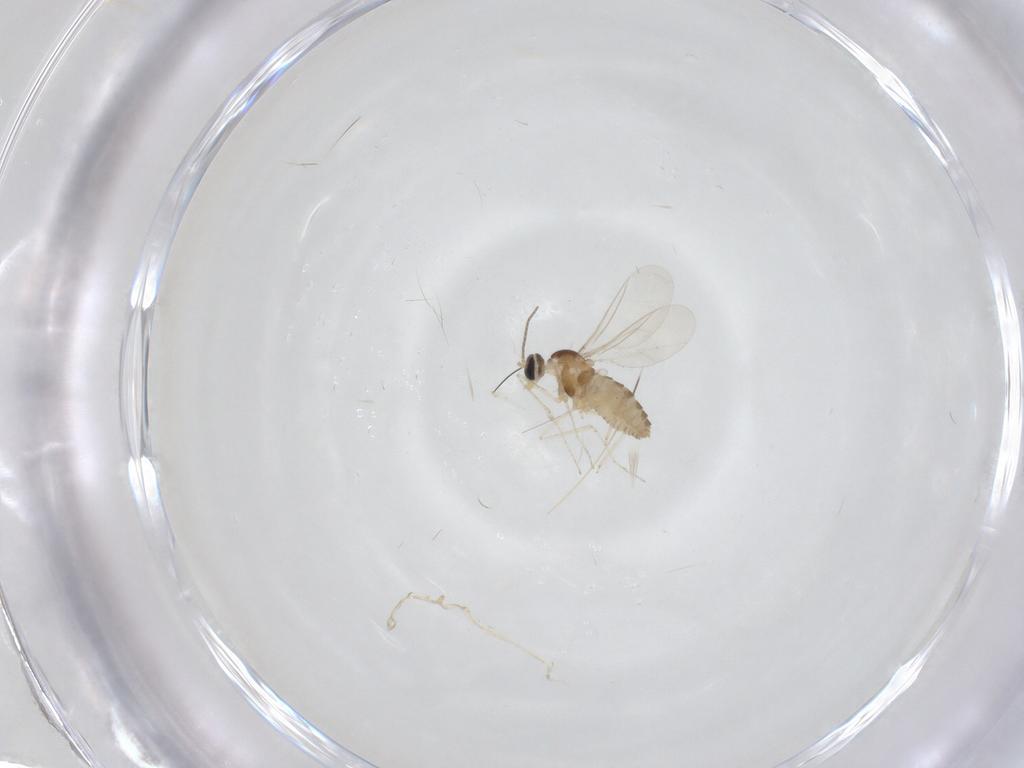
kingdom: Animalia
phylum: Arthropoda
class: Insecta
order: Diptera
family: Cecidomyiidae
